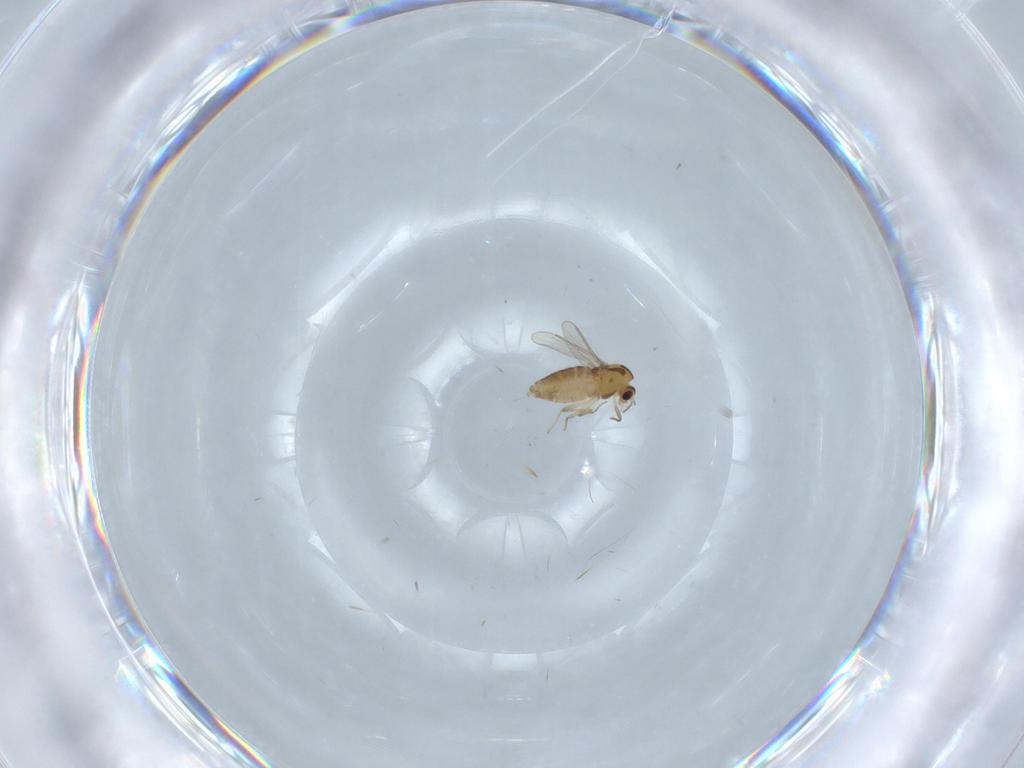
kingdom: Animalia
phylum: Arthropoda
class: Insecta
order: Diptera
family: Chironomidae
